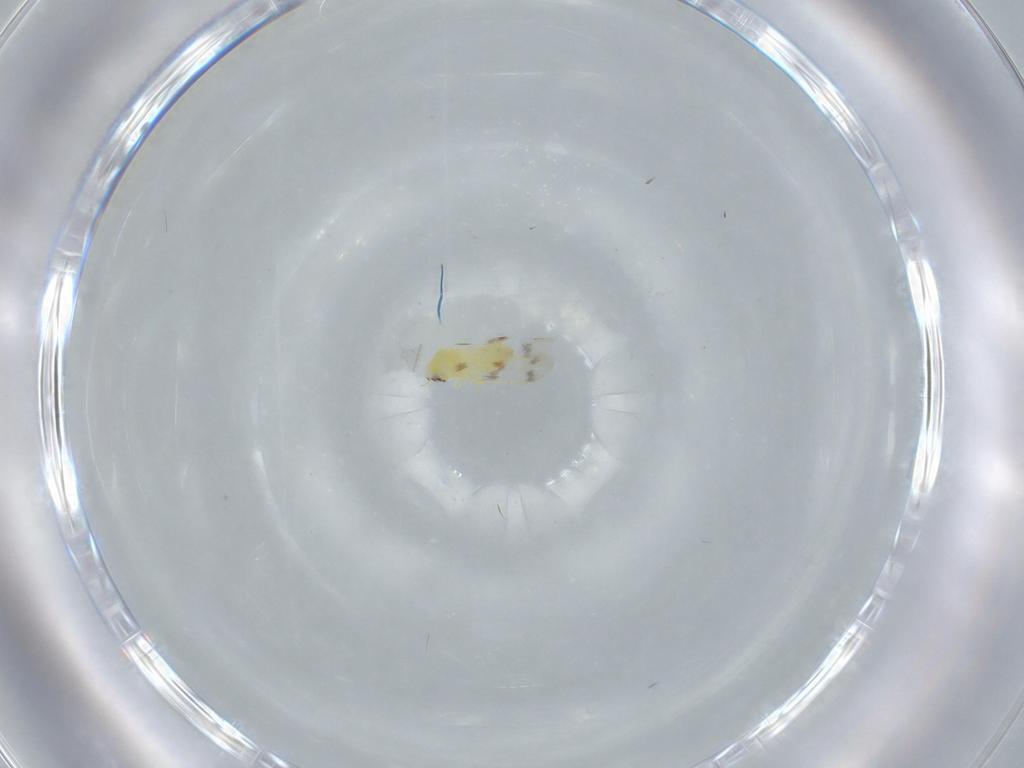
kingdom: Animalia
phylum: Arthropoda
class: Insecta
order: Hemiptera
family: Aleyrodidae
